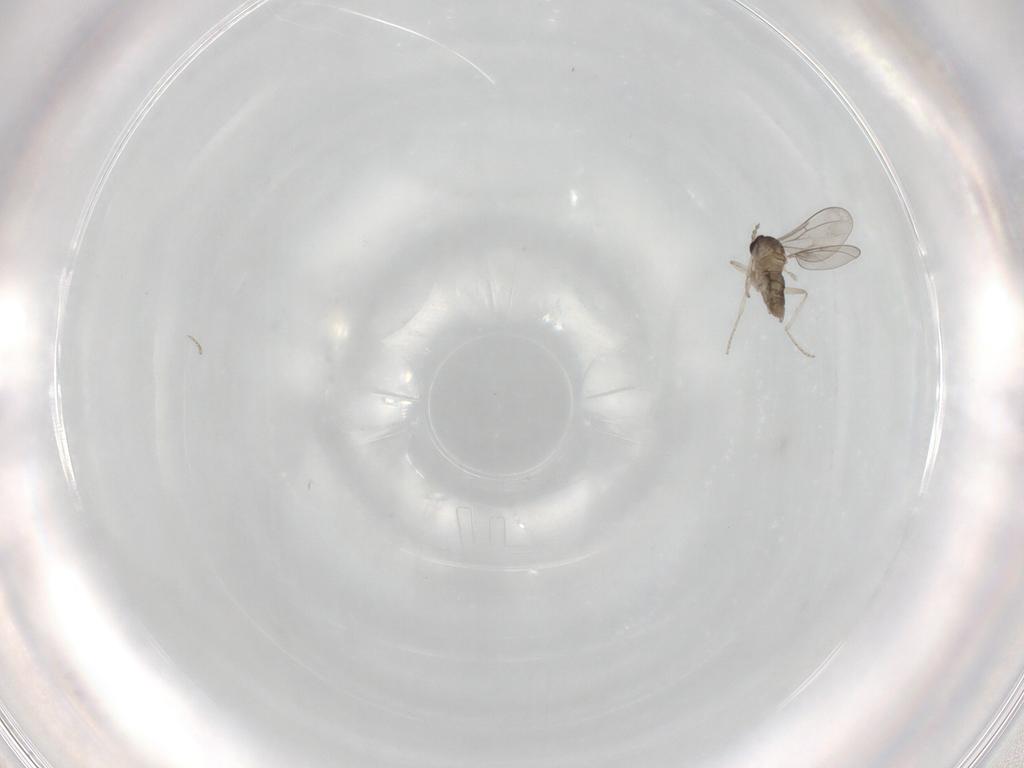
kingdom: Animalia
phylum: Arthropoda
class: Insecta
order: Diptera
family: Cecidomyiidae
